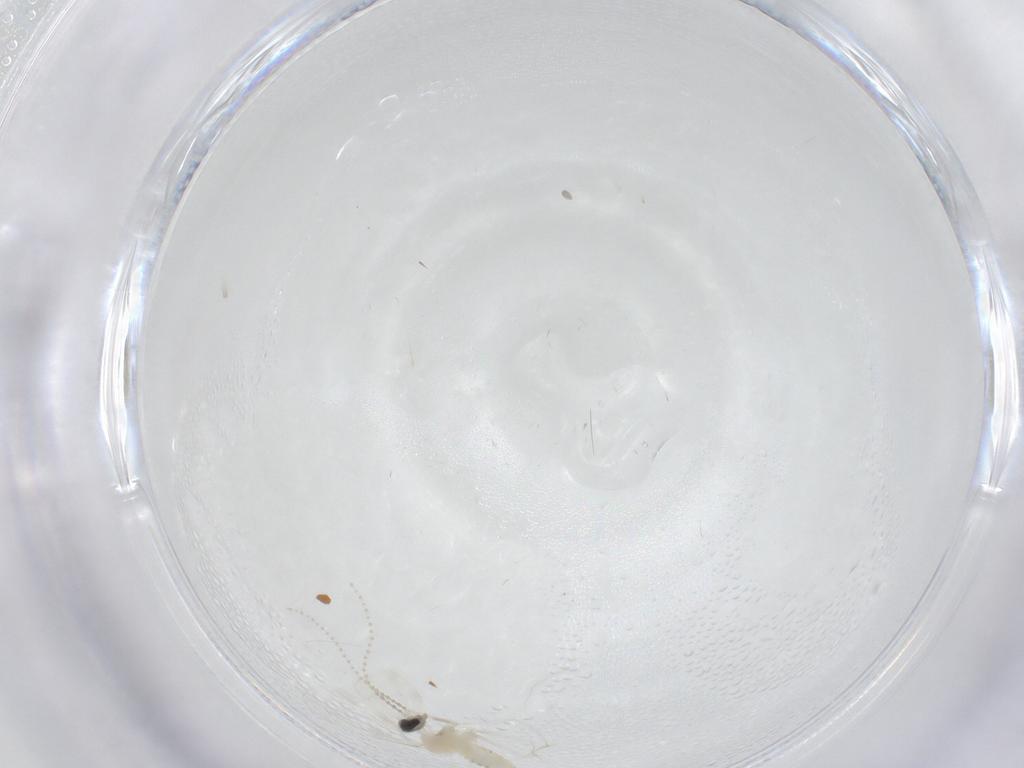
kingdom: Animalia
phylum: Arthropoda
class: Insecta
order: Diptera
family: Cecidomyiidae
